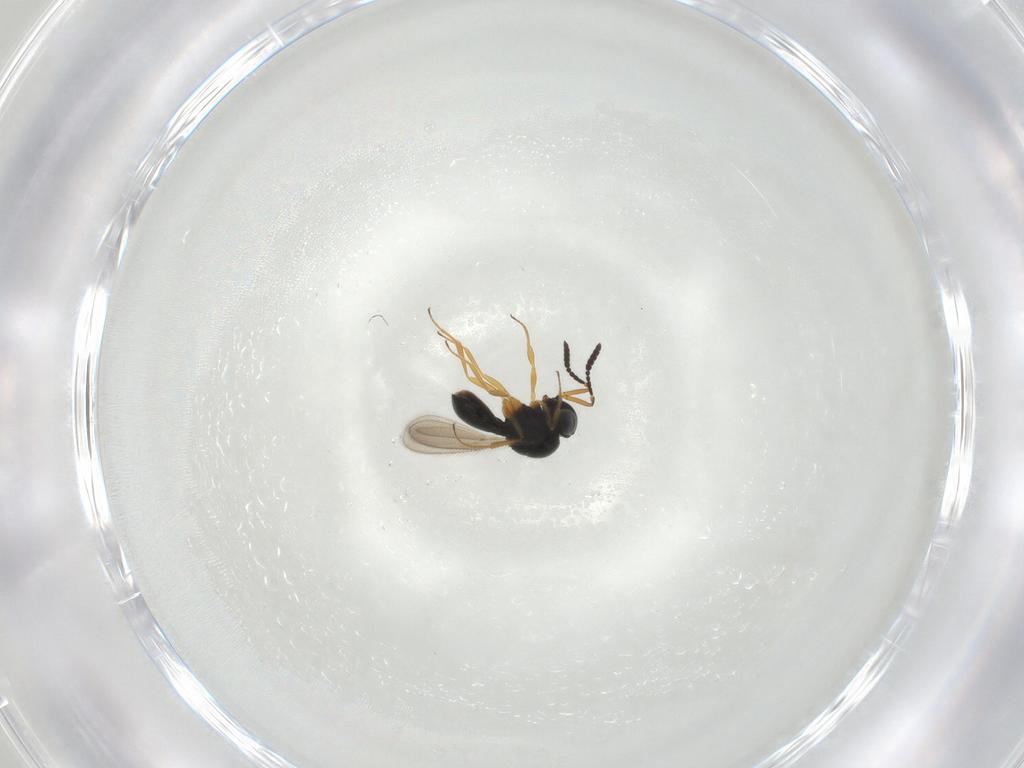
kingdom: Animalia
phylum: Arthropoda
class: Insecta
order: Hymenoptera
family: Scelionidae
